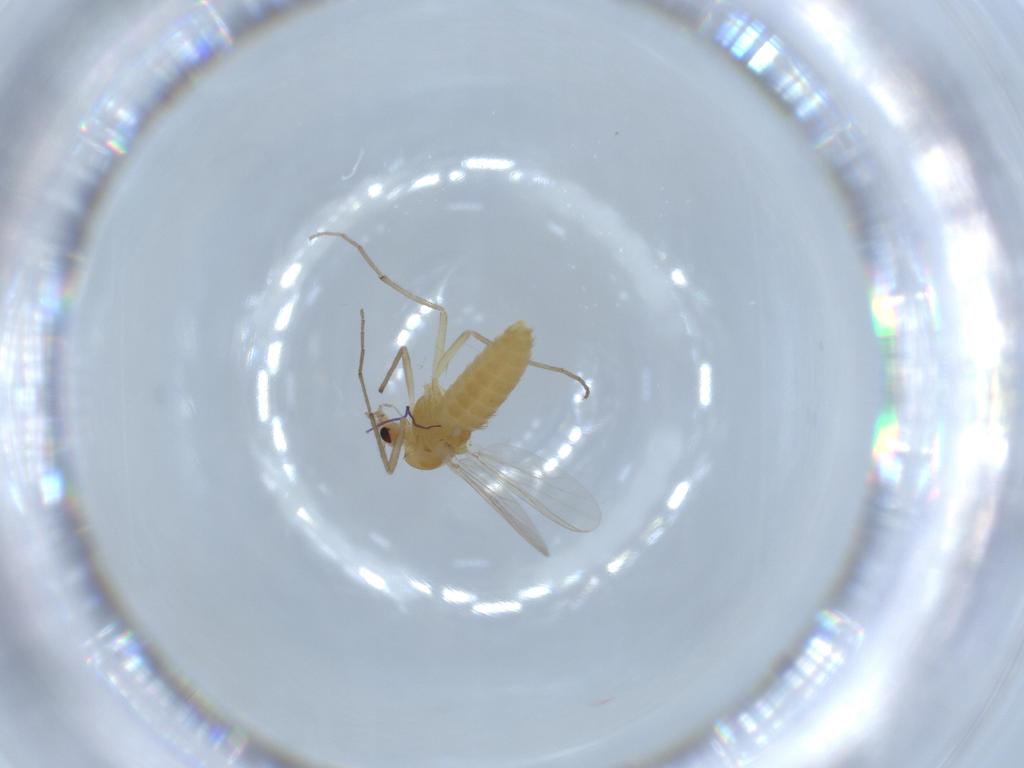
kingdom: Animalia
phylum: Arthropoda
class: Insecta
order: Diptera
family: Chironomidae
